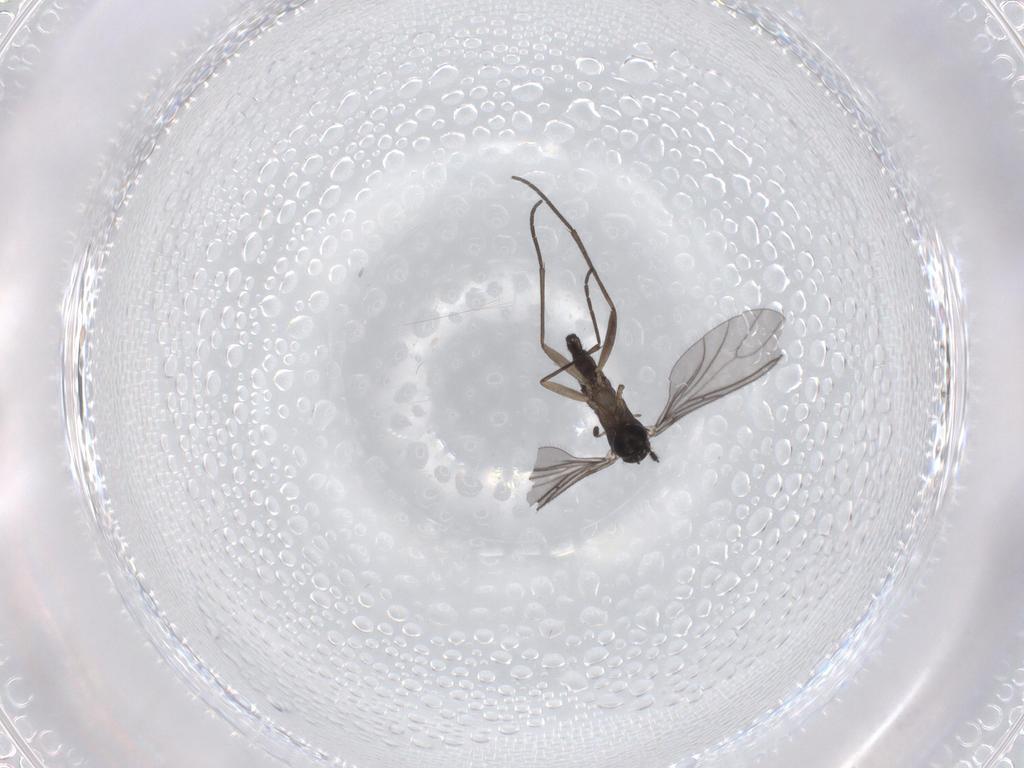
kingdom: Animalia
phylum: Arthropoda
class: Insecta
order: Diptera
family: Sciaridae
